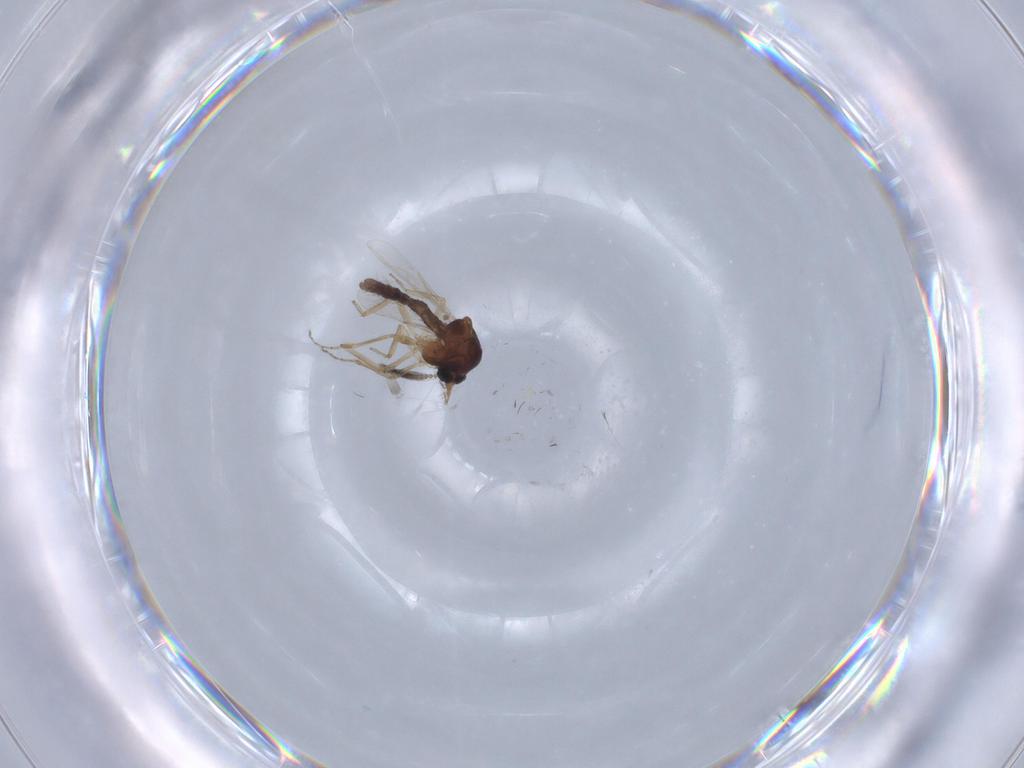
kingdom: Animalia
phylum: Arthropoda
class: Insecta
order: Diptera
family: Ceratopogonidae
